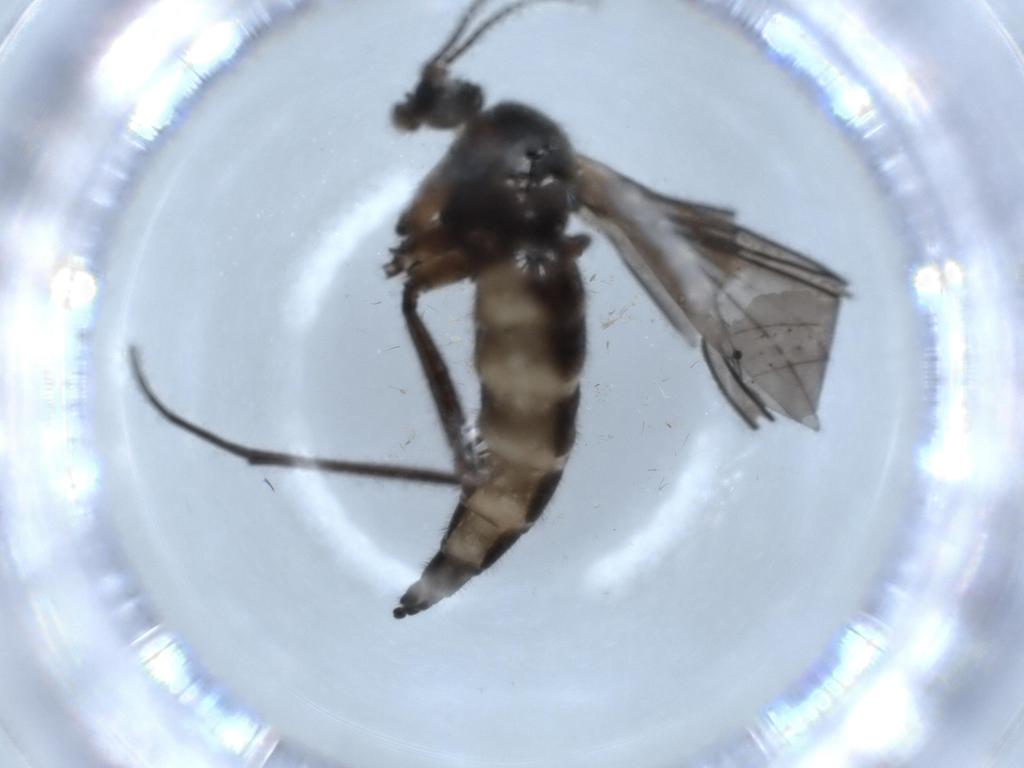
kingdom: Animalia
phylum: Arthropoda
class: Insecta
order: Diptera
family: Sciaridae
